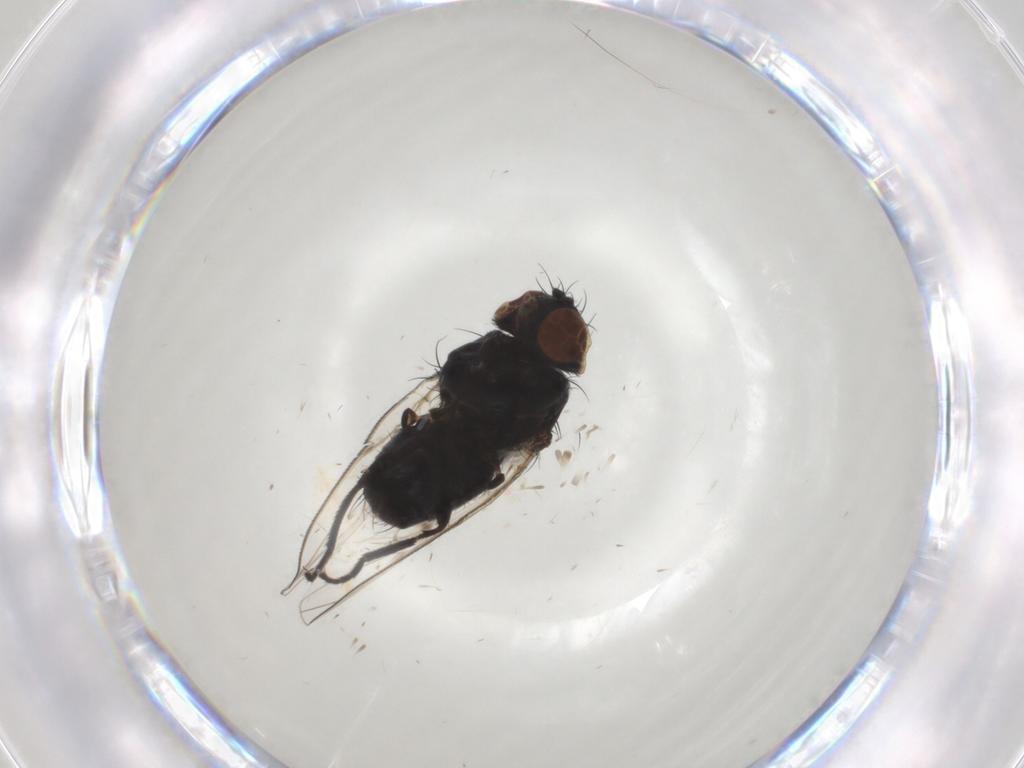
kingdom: Animalia
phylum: Arthropoda
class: Insecta
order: Diptera
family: Milichiidae
